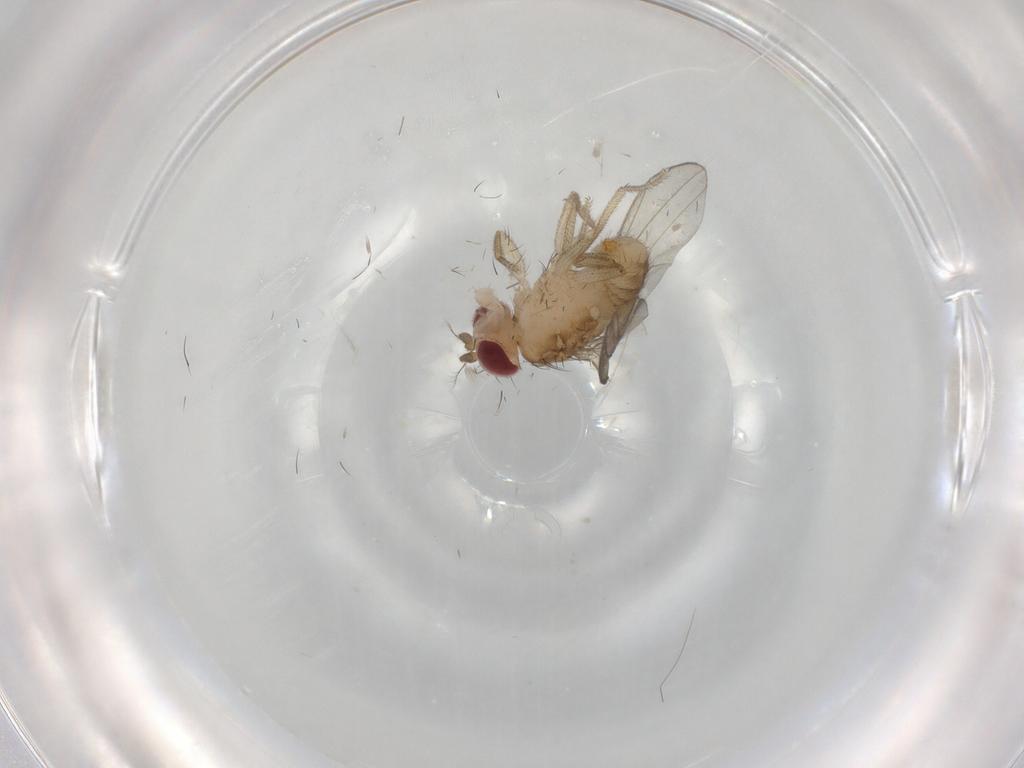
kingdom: Animalia
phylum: Arthropoda
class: Insecta
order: Diptera
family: Drosophilidae
